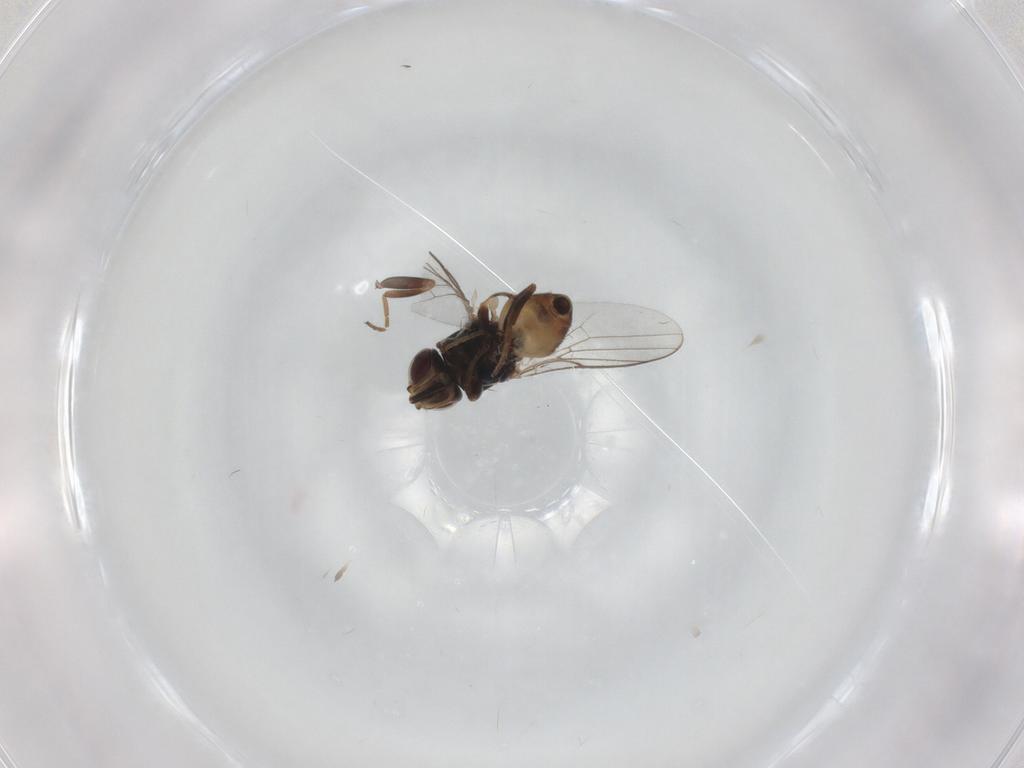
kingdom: Animalia
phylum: Arthropoda
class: Insecta
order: Diptera
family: Chloropidae
